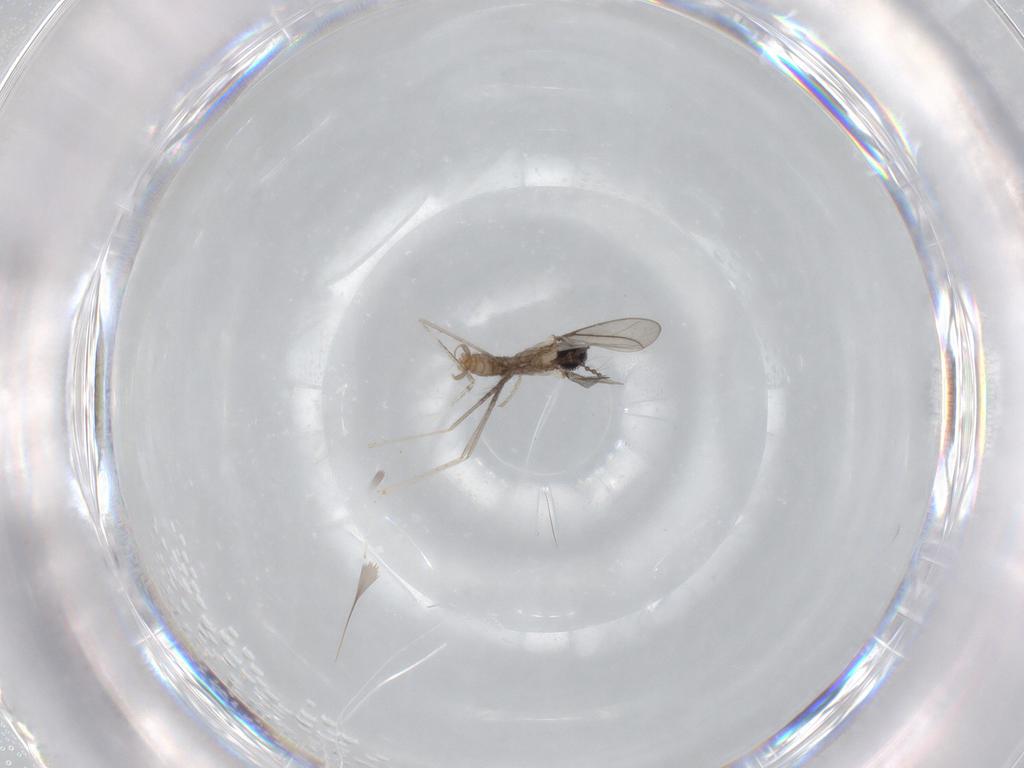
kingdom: Animalia
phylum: Arthropoda
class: Insecta
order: Diptera
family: Cecidomyiidae
